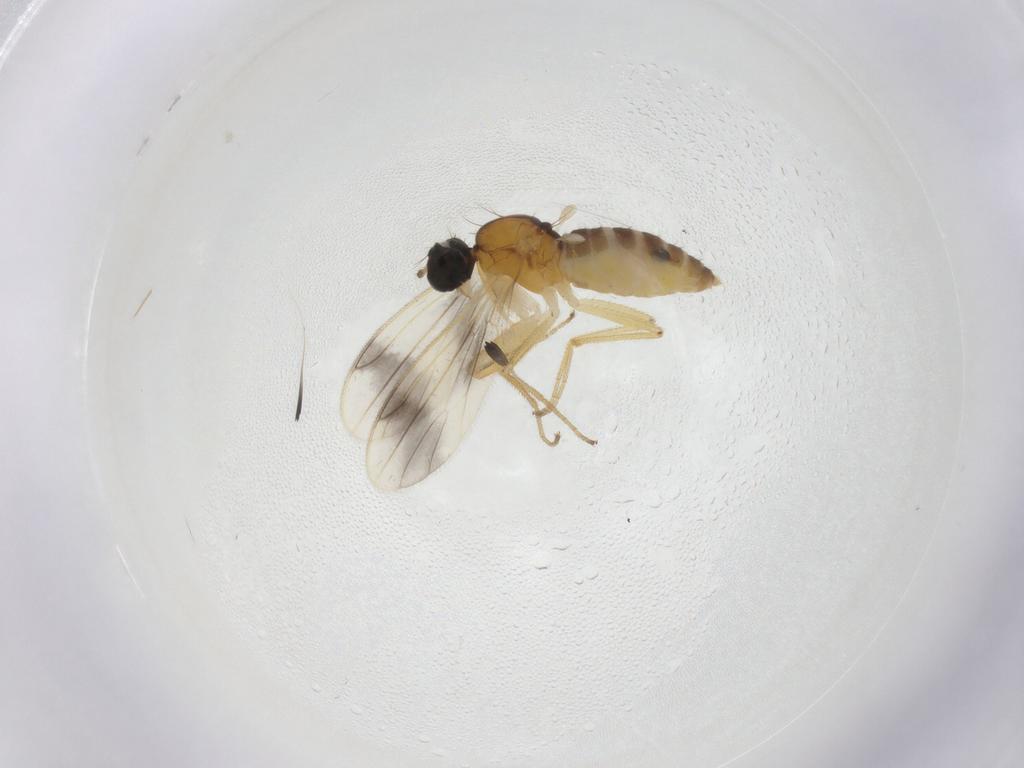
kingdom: Animalia
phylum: Arthropoda
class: Insecta
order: Diptera
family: Empididae
